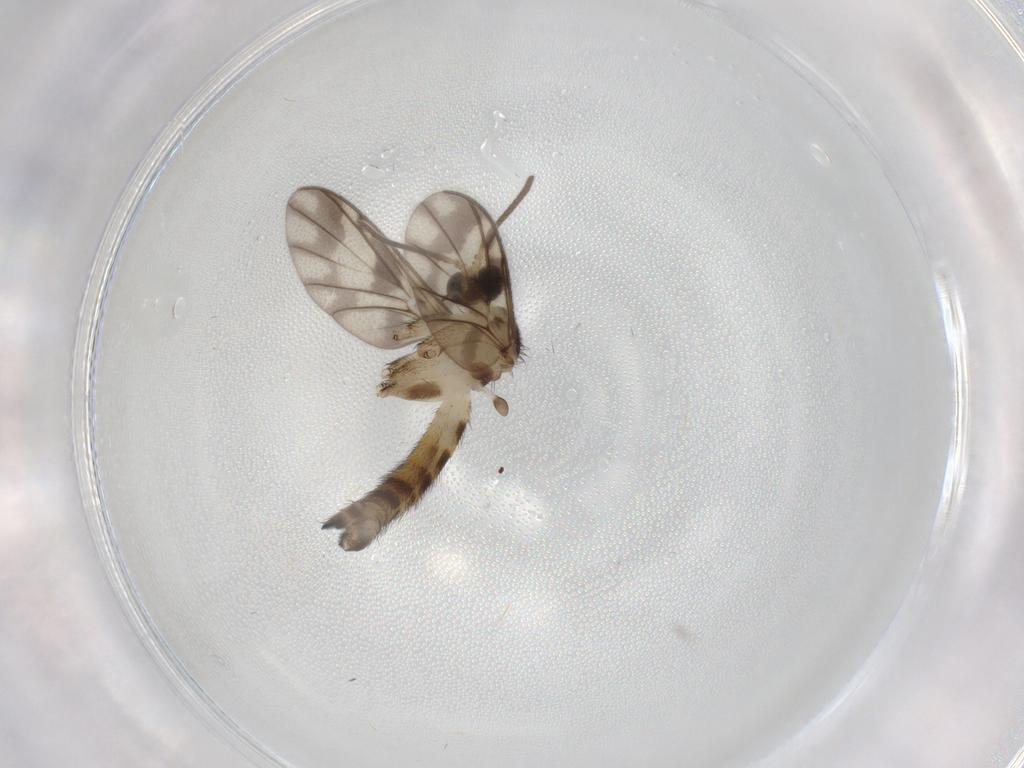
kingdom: Animalia
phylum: Arthropoda
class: Insecta
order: Diptera
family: Keroplatidae
